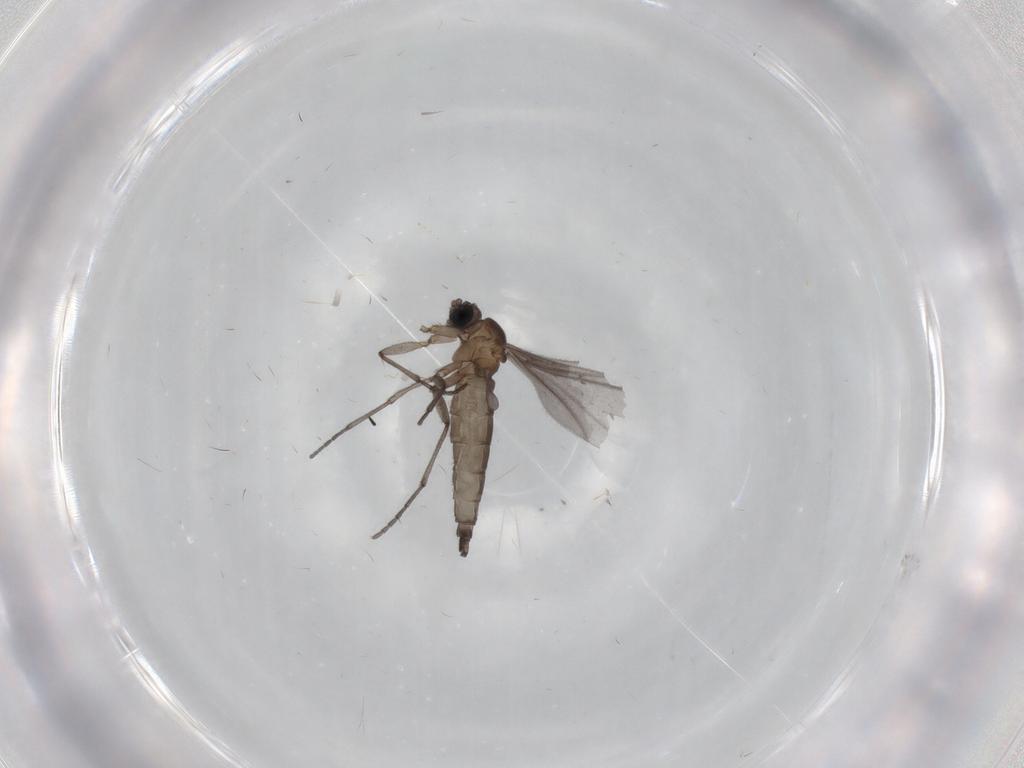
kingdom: Animalia
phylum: Arthropoda
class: Insecta
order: Diptera
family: Sciaridae
